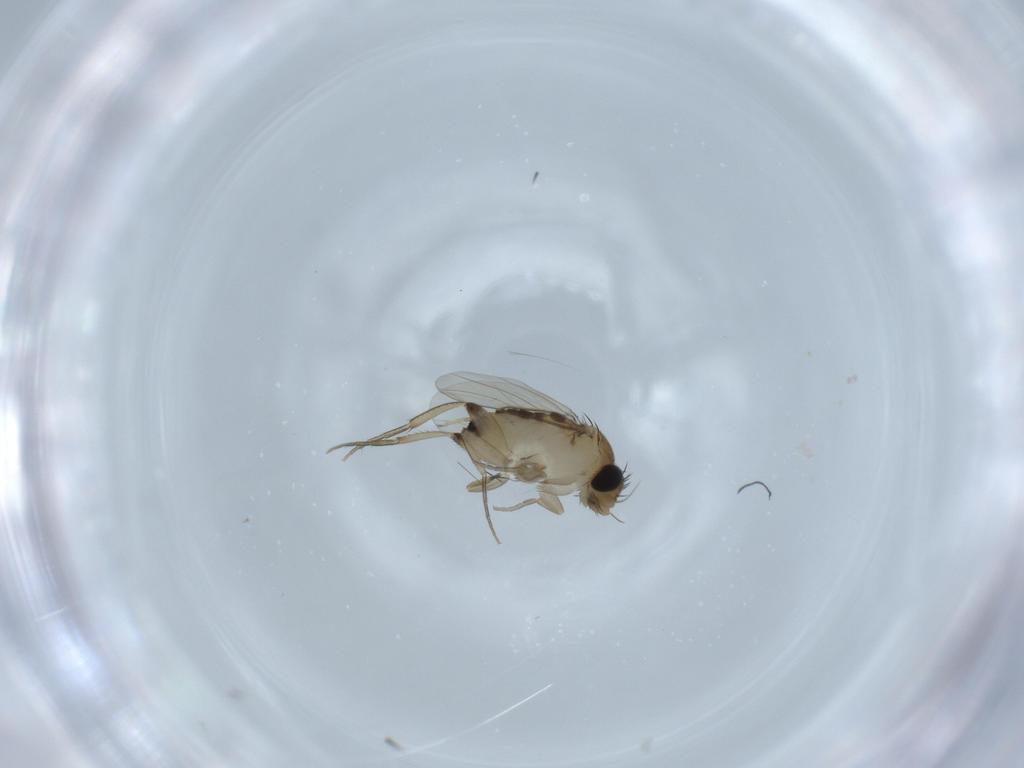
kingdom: Animalia
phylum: Arthropoda
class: Insecta
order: Diptera
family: Phoridae
